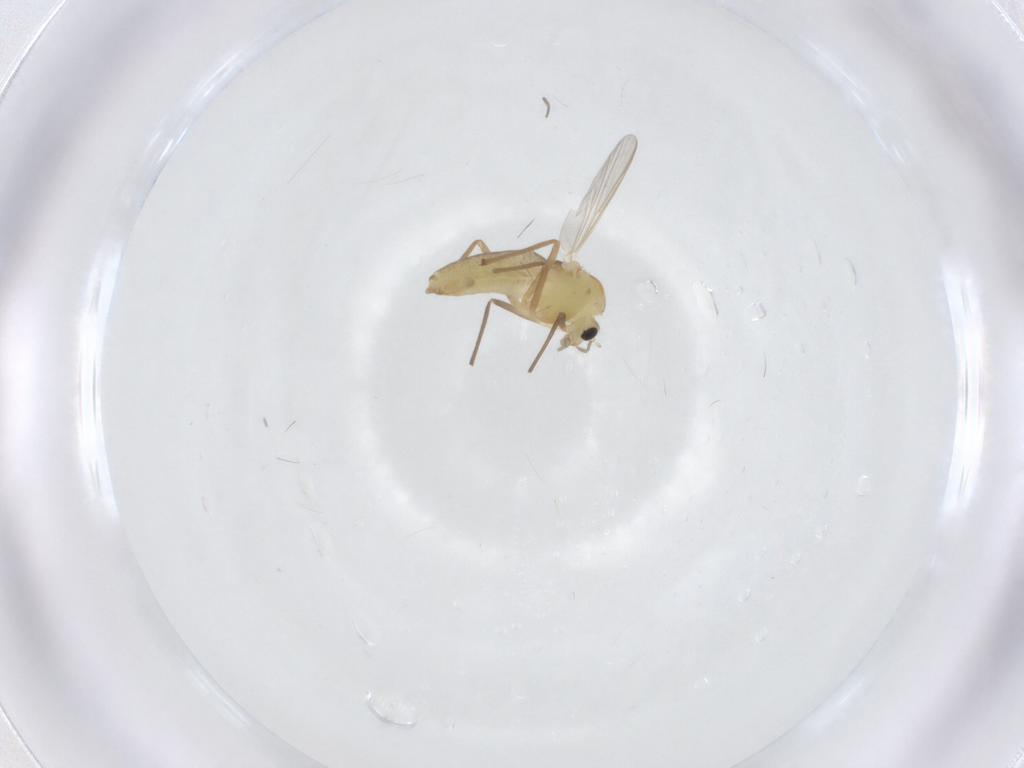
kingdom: Animalia
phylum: Arthropoda
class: Insecta
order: Diptera
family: Chironomidae
